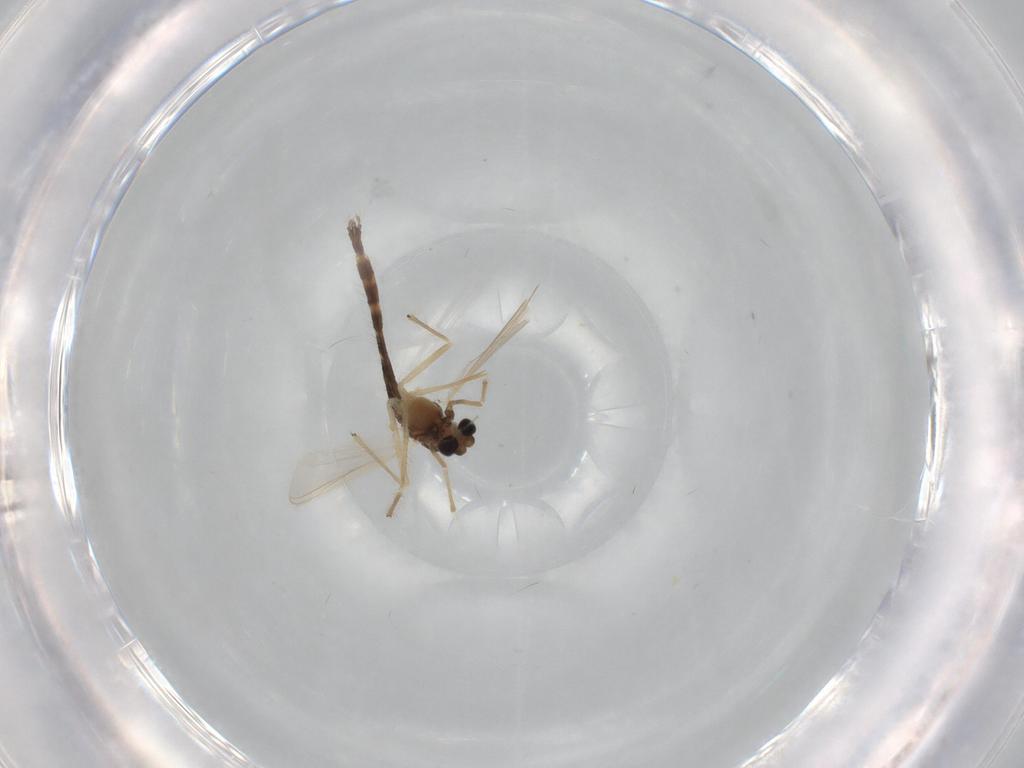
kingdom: Animalia
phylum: Arthropoda
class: Insecta
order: Diptera
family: Chironomidae
